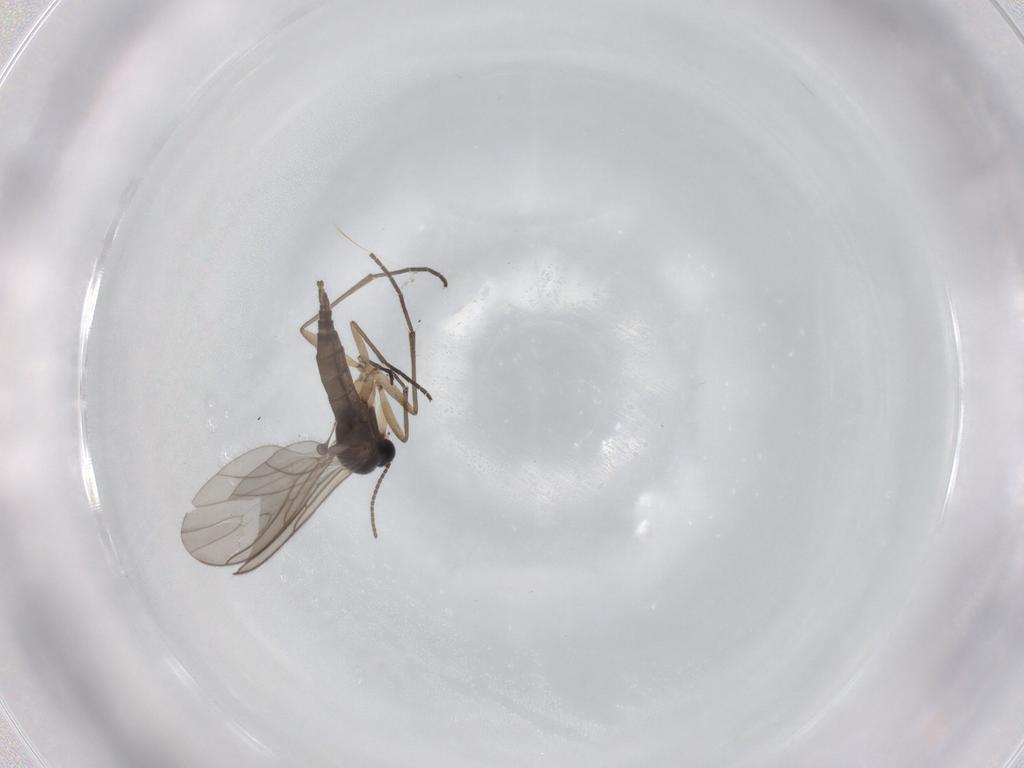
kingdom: Animalia
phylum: Arthropoda
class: Insecta
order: Diptera
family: Sciaridae
